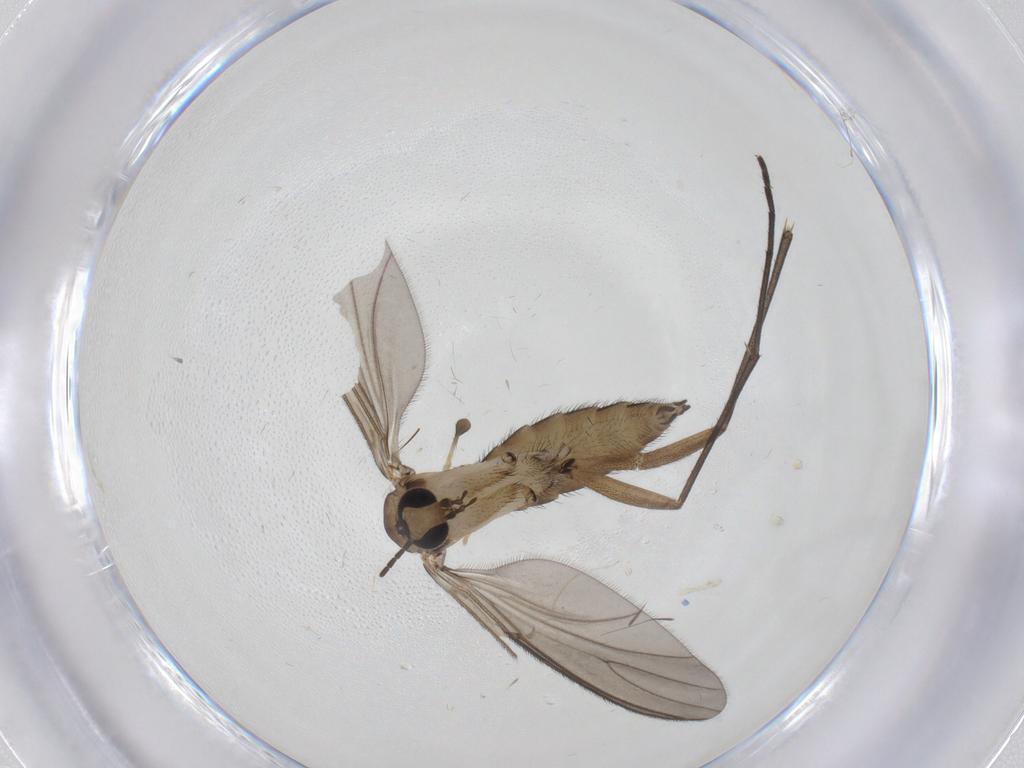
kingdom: Animalia
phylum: Arthropoda
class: Insecta
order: Diptera
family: Sciaridae
